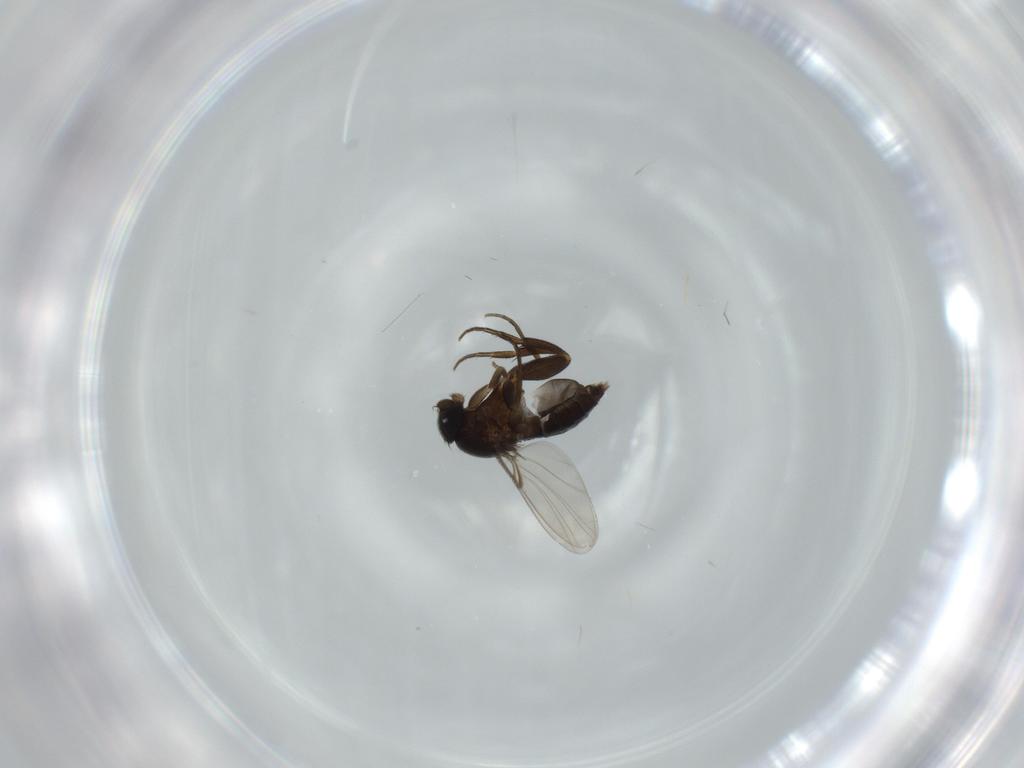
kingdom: Animalia
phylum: Arthropoda
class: Insecta
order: Diptera
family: Phoridae
